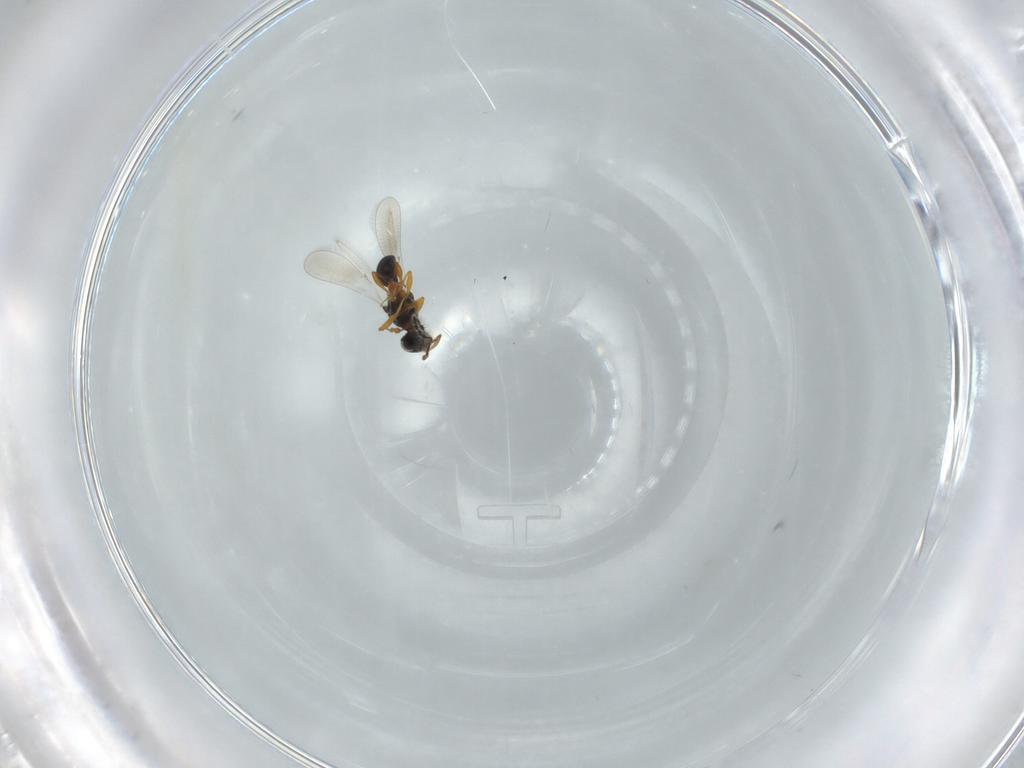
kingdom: Animalia
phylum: Arthropoda
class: Insecta
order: Hymenoptera
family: Platygastridae
